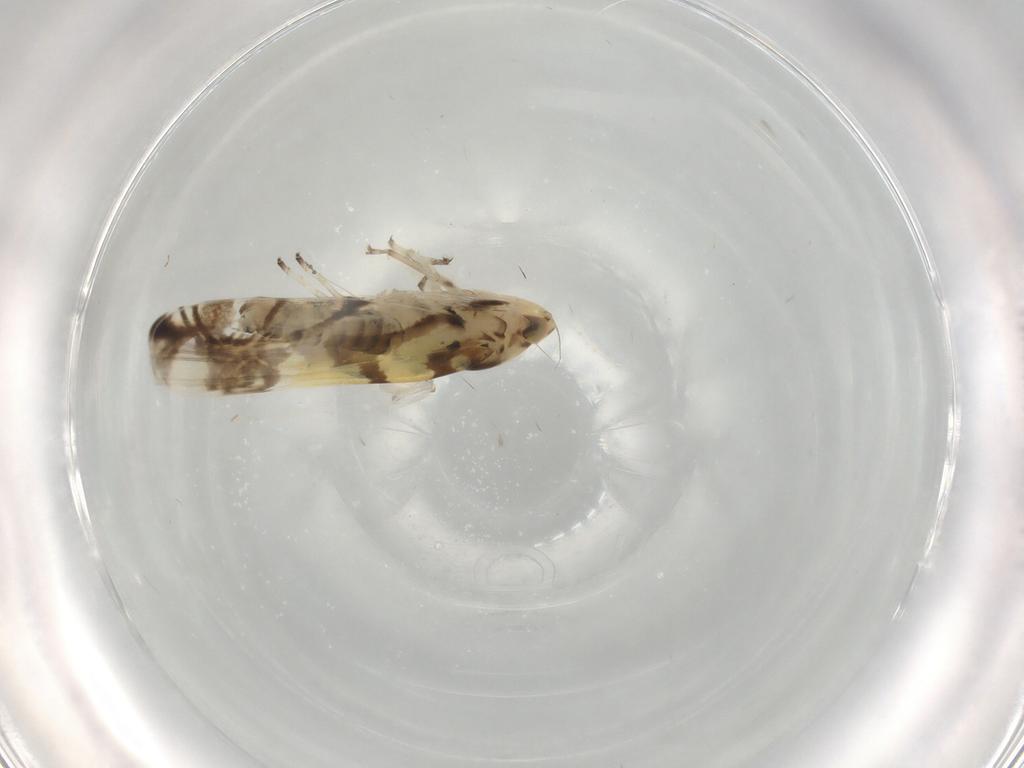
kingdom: Animalia
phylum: Arthropoda
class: Insecta
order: Hemiptera
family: Cicadellidae
